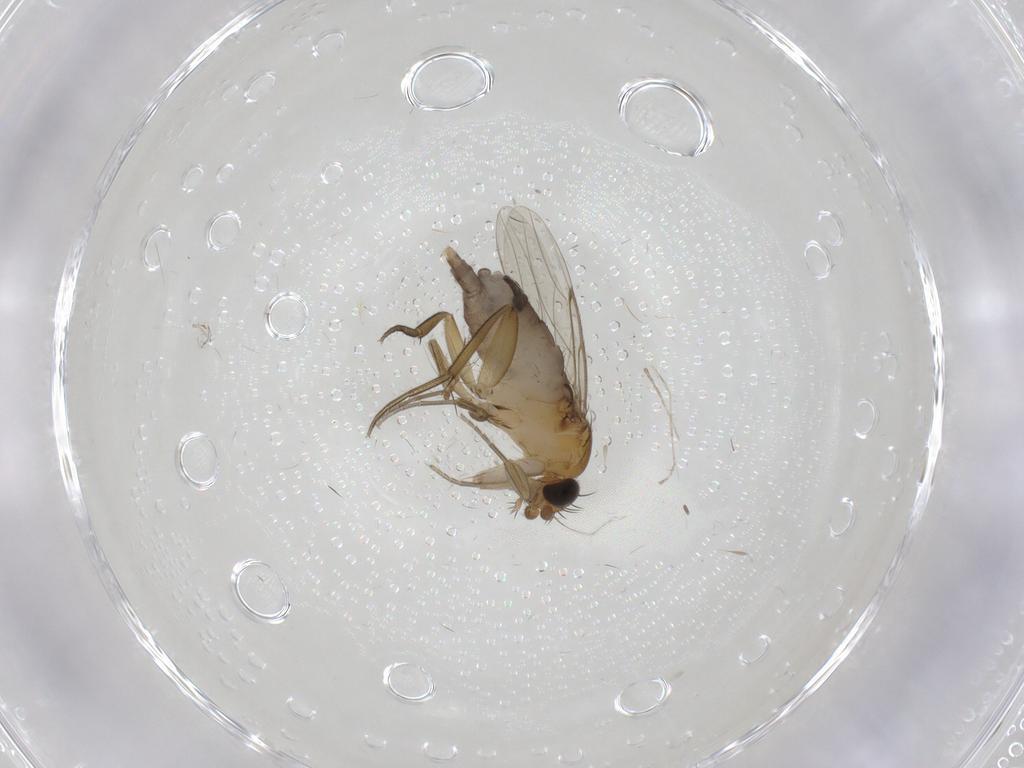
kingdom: Animalia
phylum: Arthropoda
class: Insecta
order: Diptera
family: Phoridae
